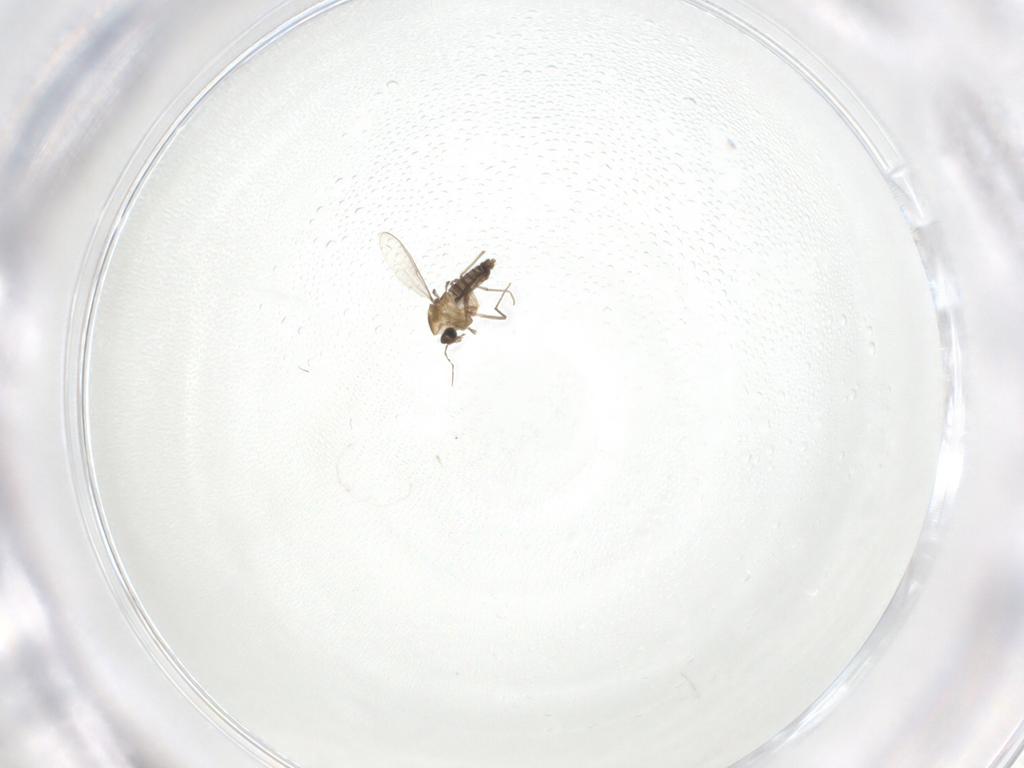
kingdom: Animalia
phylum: Arthropoda
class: Insecta
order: Diptera
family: Chironomidae
